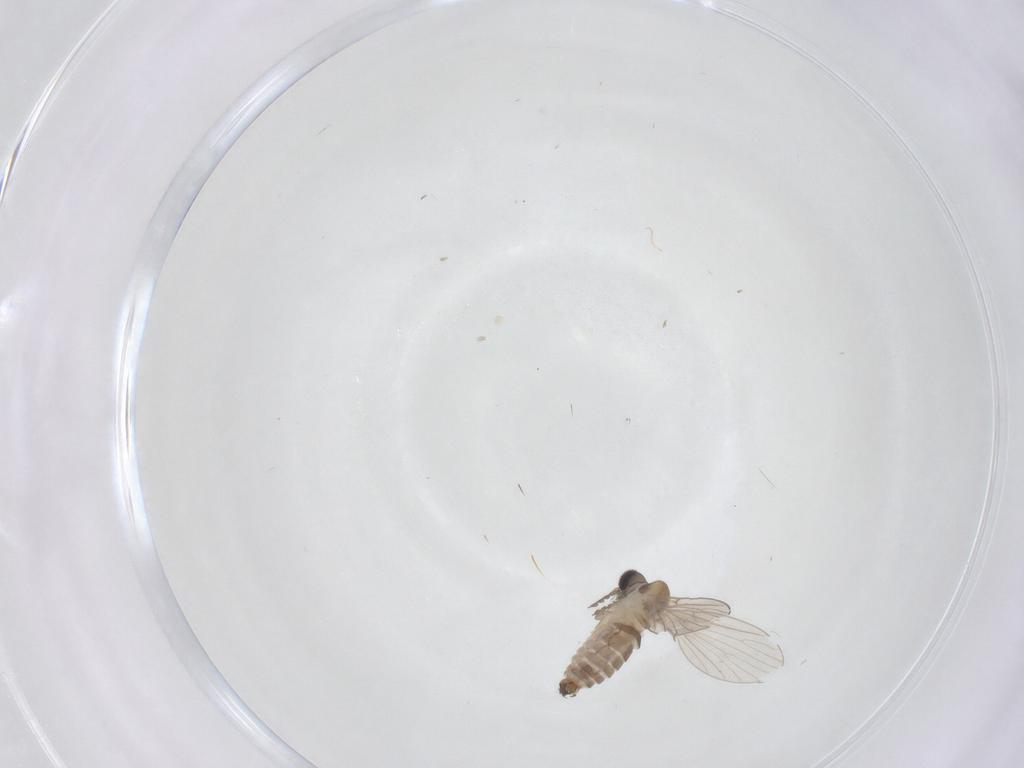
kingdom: Animalia
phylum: Arthropoda
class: Insecta
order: Diptera
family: Psychodidae
